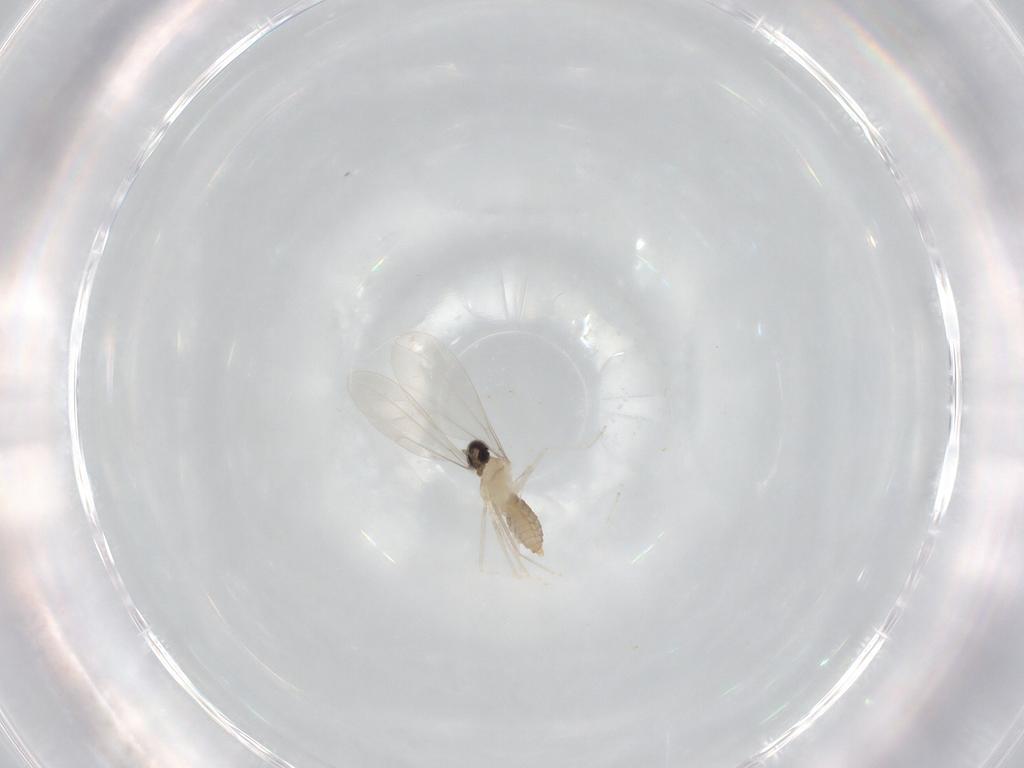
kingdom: Animalia
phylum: Arthropoda
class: Insecta
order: Diptera
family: Cecidomyiidae
